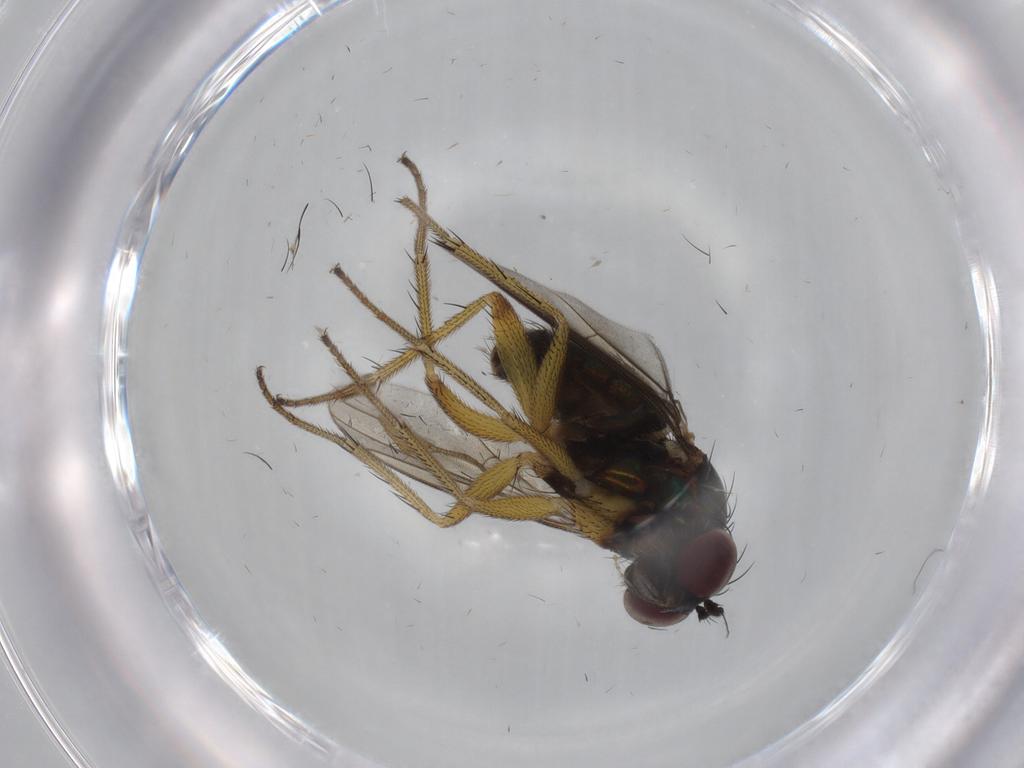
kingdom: Animalia
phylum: Arthropoda
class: Insecta
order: Diptera
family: Dolichopodidae
